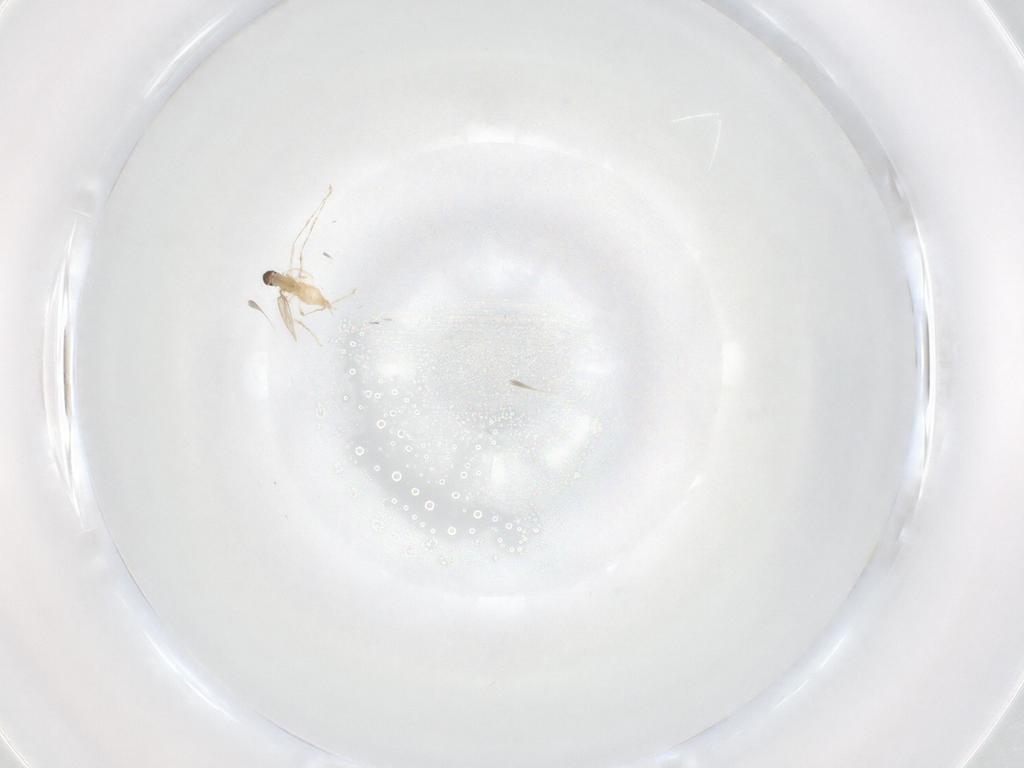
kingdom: Animalia
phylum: Arthropoda
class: Insecta
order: Diptera
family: Cecidomyiidae
